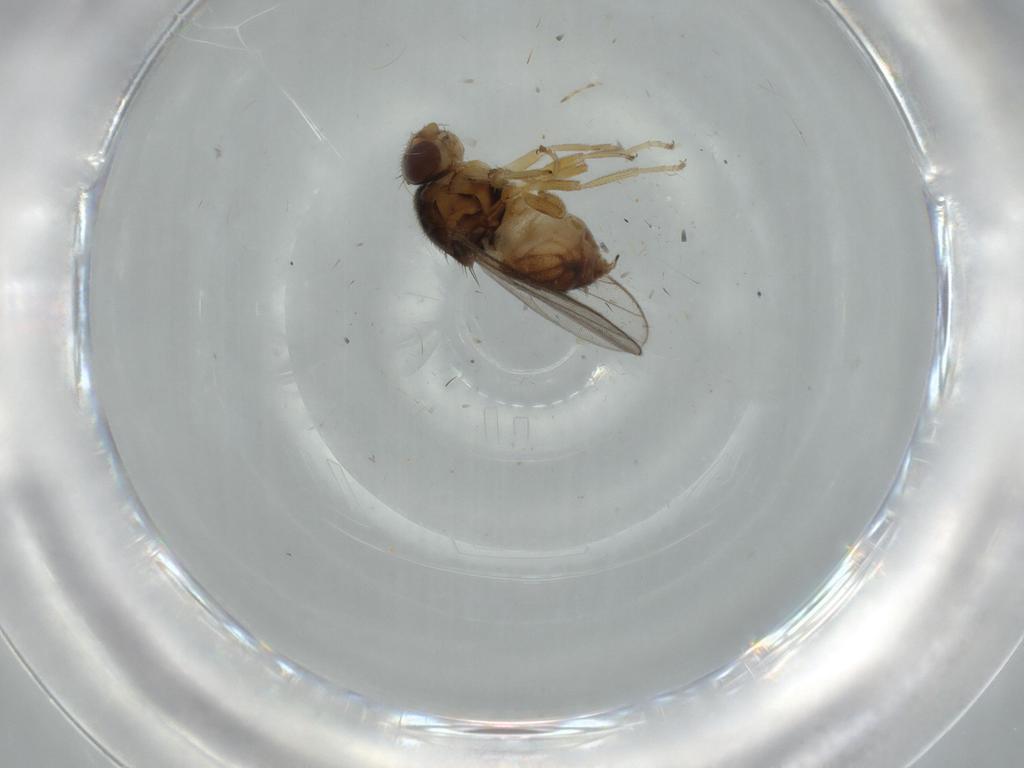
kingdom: Animalia
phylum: Arthropoda
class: Insecta
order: Diptera
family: Chloropidae
